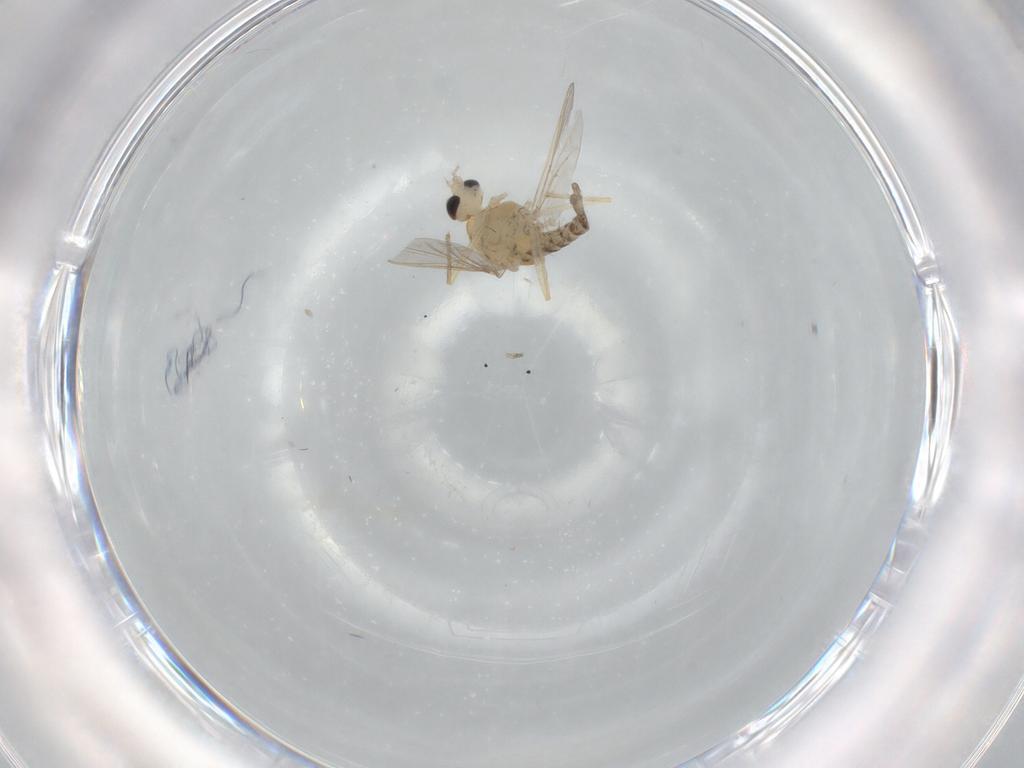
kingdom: Animalia
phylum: Arthropoda
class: Insecta
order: Diptera
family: Chironomidae
